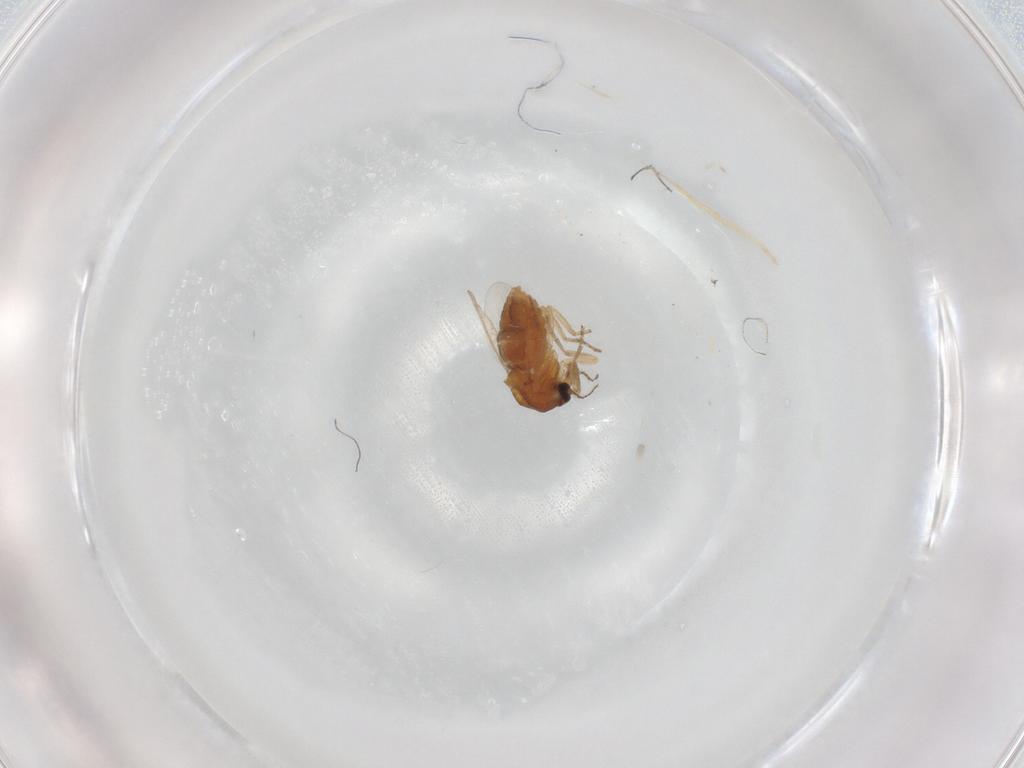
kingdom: Animalia
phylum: Arthropoda
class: Insecta
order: Diptera
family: Ceratopogonidae
